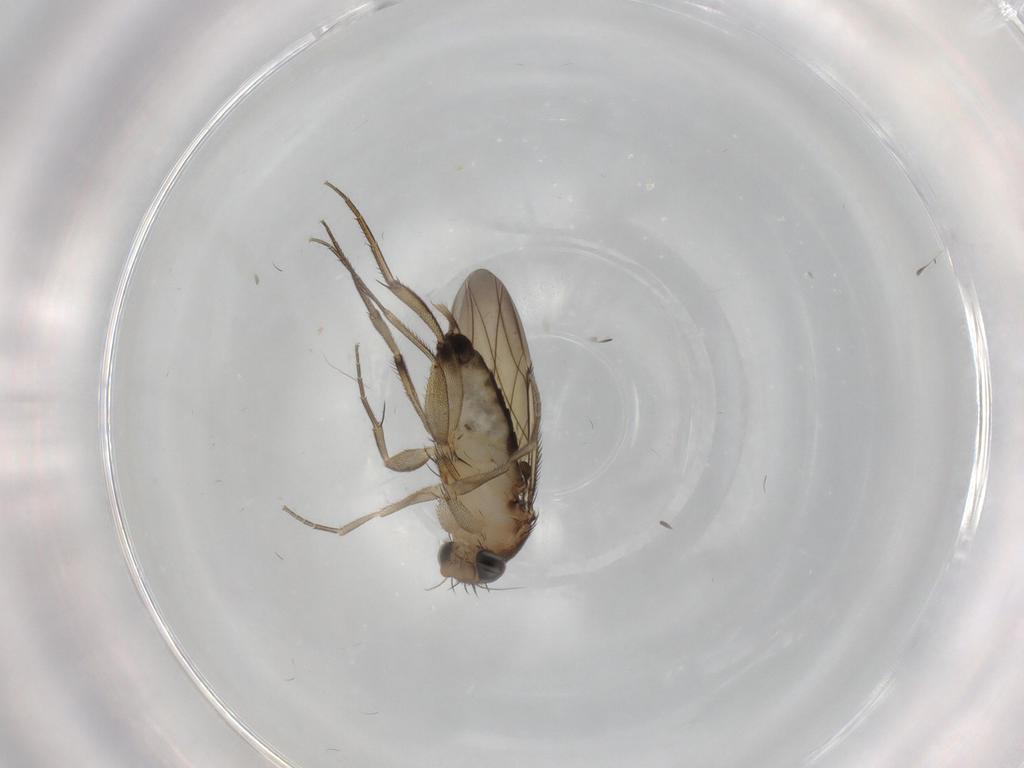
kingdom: Animalia
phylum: Arthropoda
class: Insecta
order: Diptera
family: Phoridae
